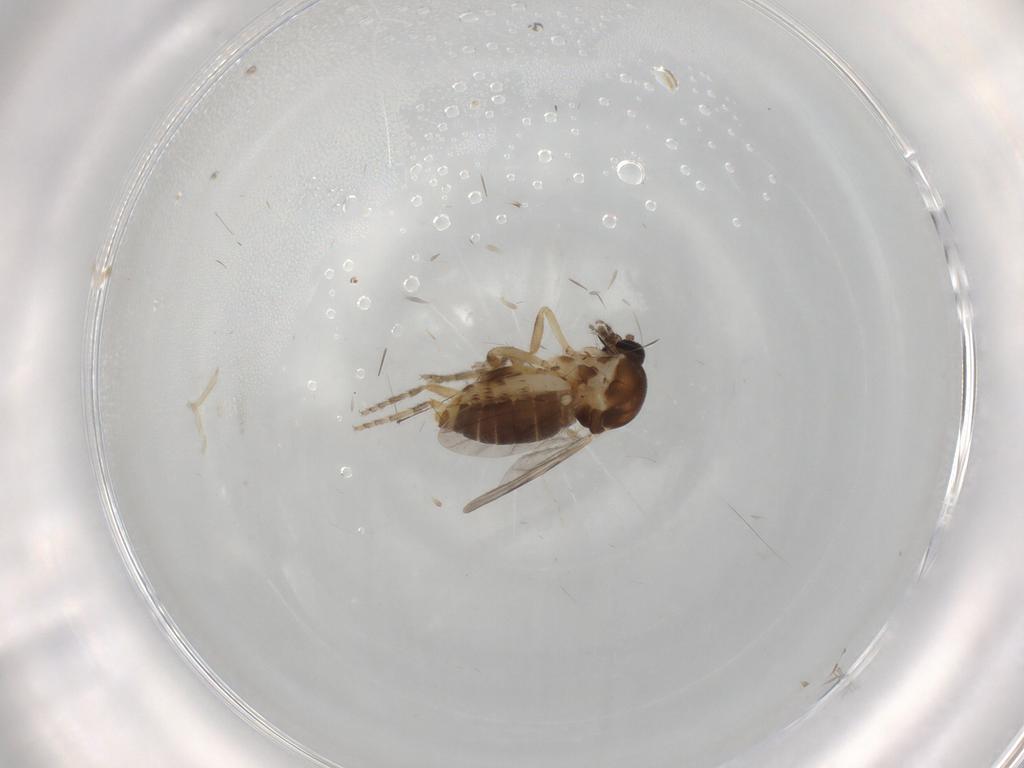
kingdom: Animalia
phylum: Arthropoda
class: Insecta
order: Diptera
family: Ceratopogonidae
